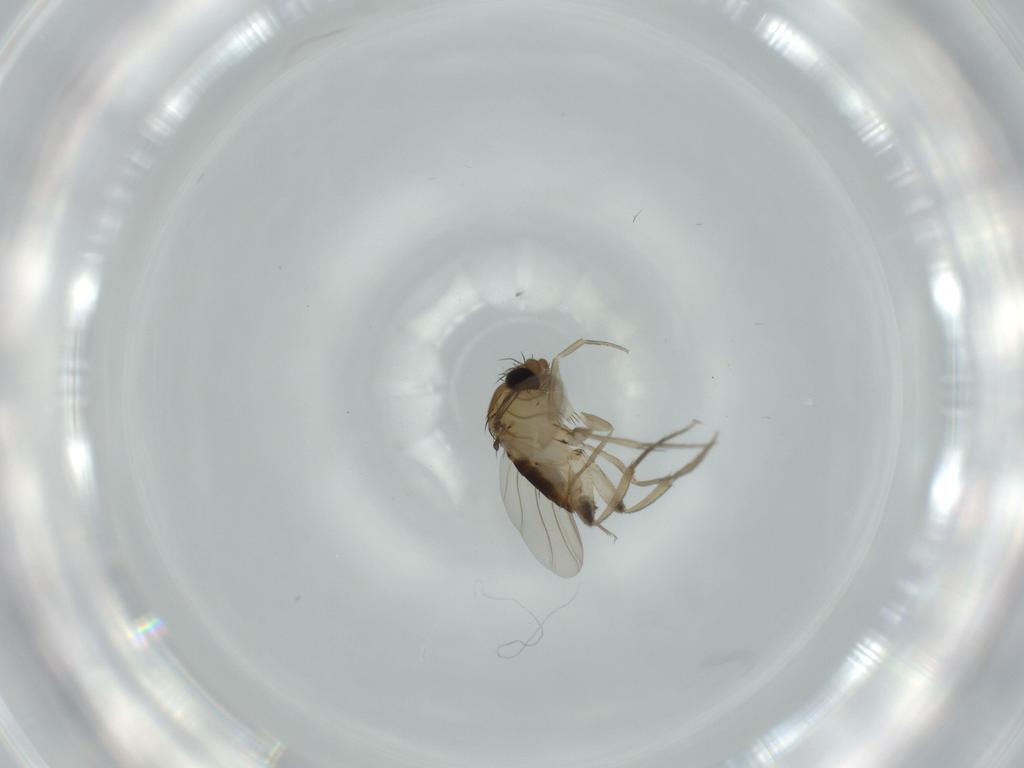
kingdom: Animalia
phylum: Arthropoda
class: Insecta
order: Diptera
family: Phoridae
